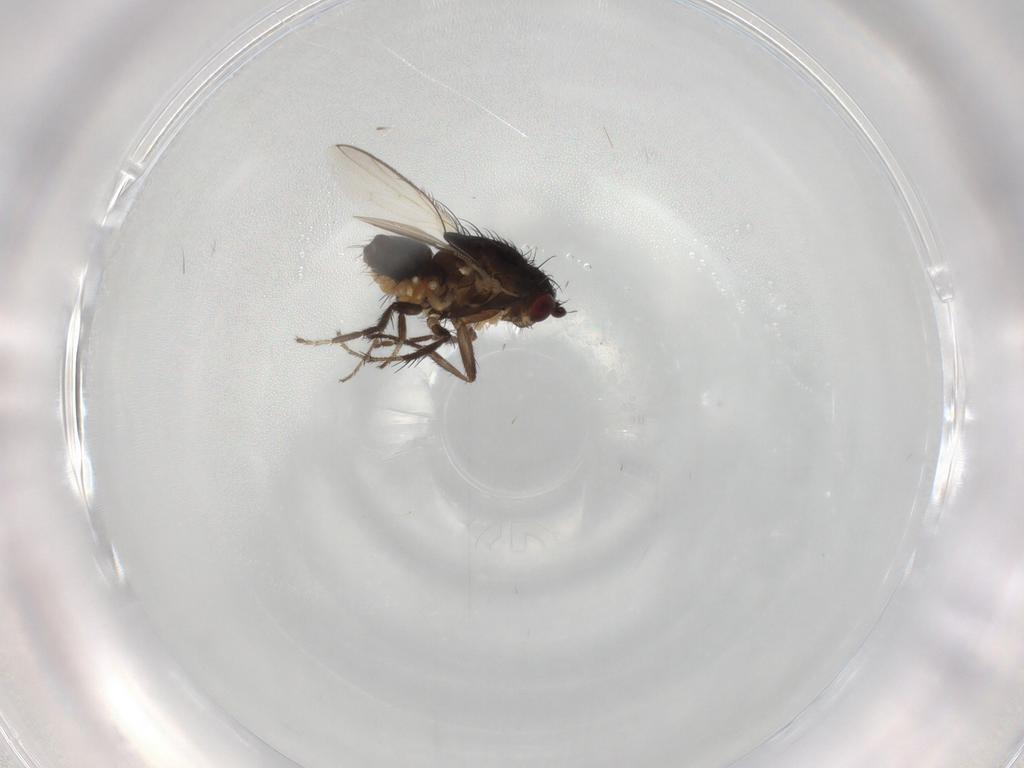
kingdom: Animalia
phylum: Arthropoda
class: Insecta
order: Diptera
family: Sphaeroceridae
